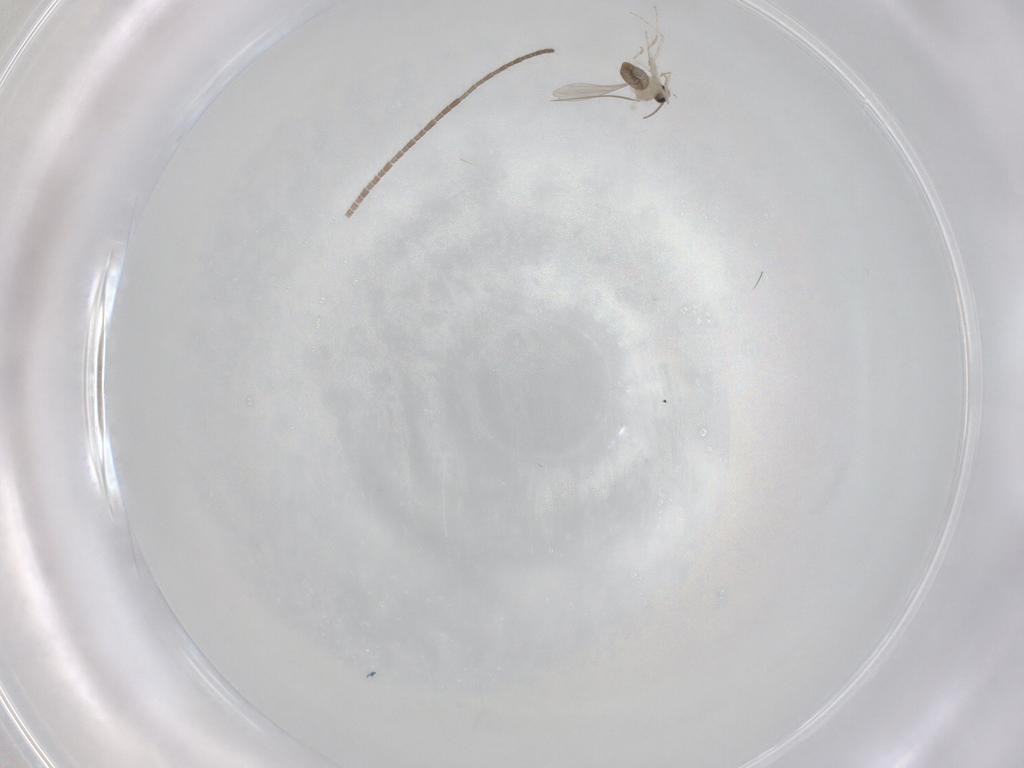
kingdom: Animalia
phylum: Arthropoda
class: Insecta
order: Diptera
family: Cecidomyiidae
